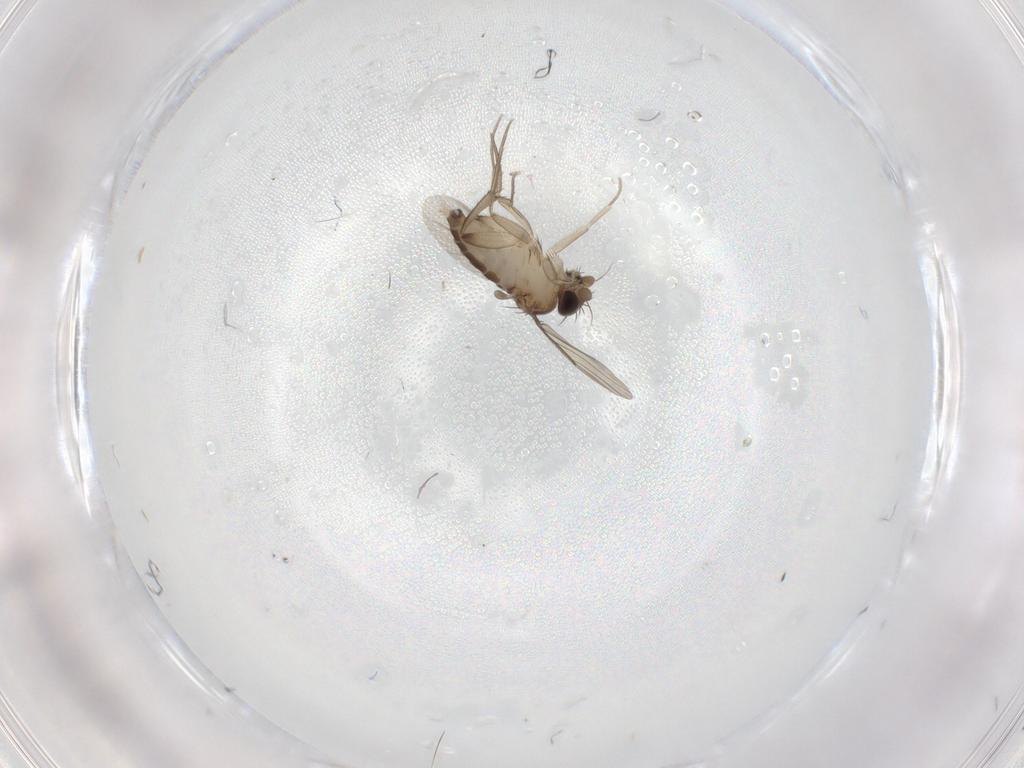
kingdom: Animalia
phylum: Arthropoda
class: Insecta
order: Diptera
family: Phoridae
